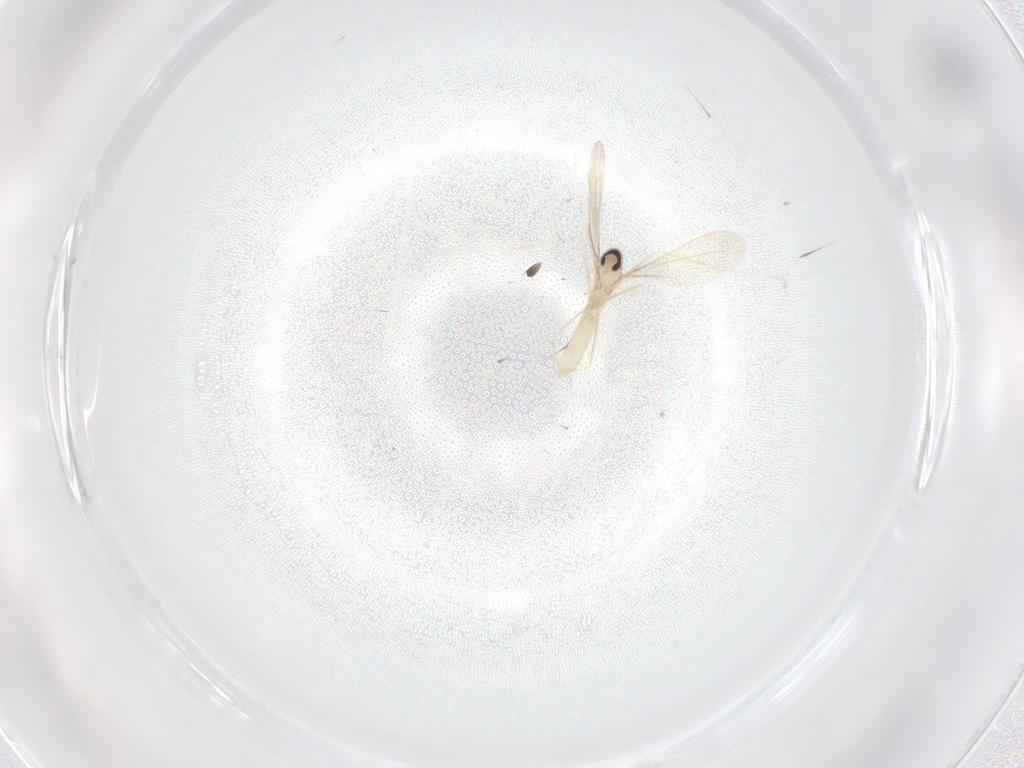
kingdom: Animalia
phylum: Arthropoda
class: Insecta
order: Diptera
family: Cecidomyiidae
